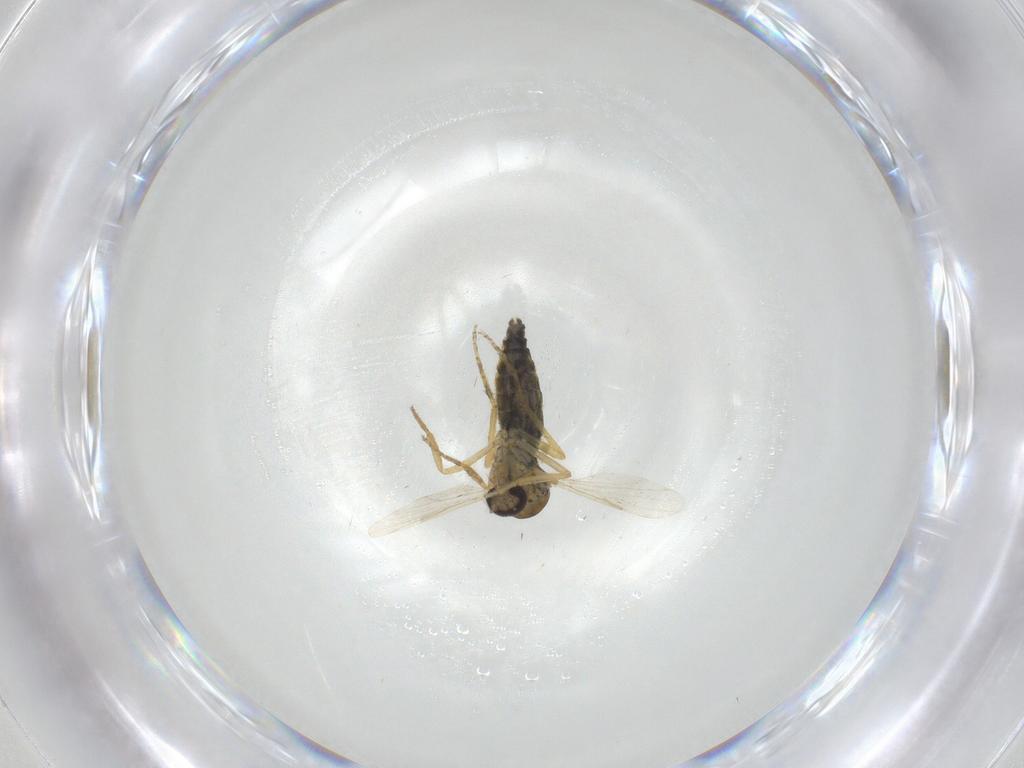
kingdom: Animalia
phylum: Arthropoda
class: Insecta
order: Diptera
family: Ceratopogonidae
